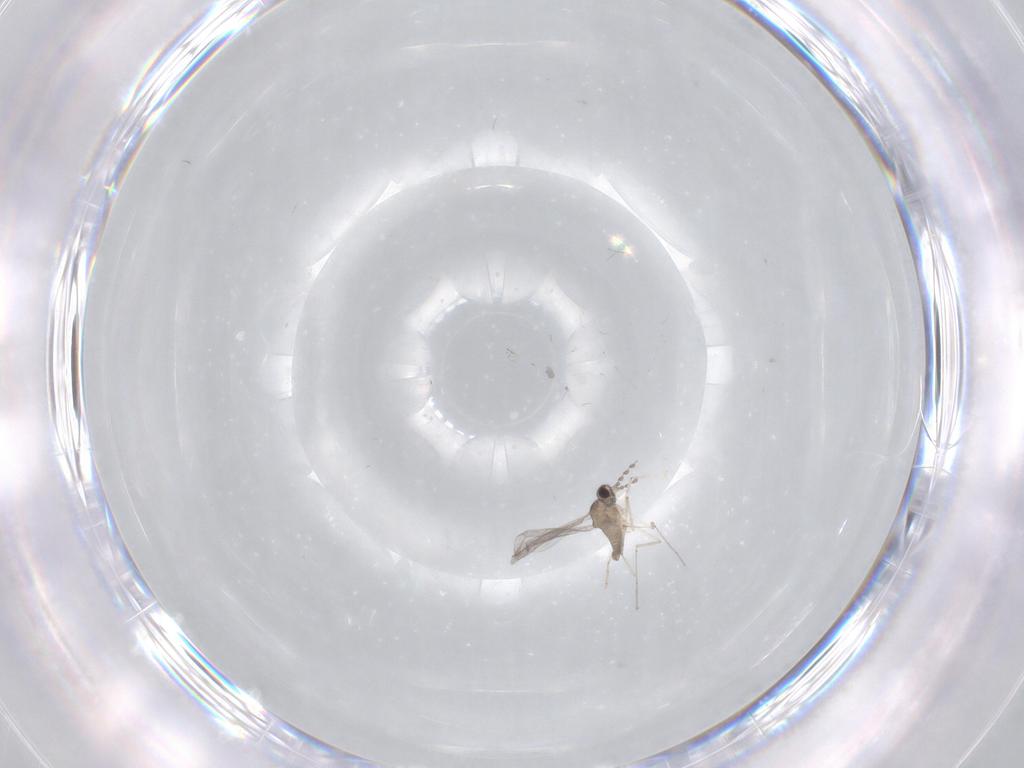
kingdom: Animalia
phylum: Arthropoda
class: Insecta
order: Diptera
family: Cecidomyiidae
